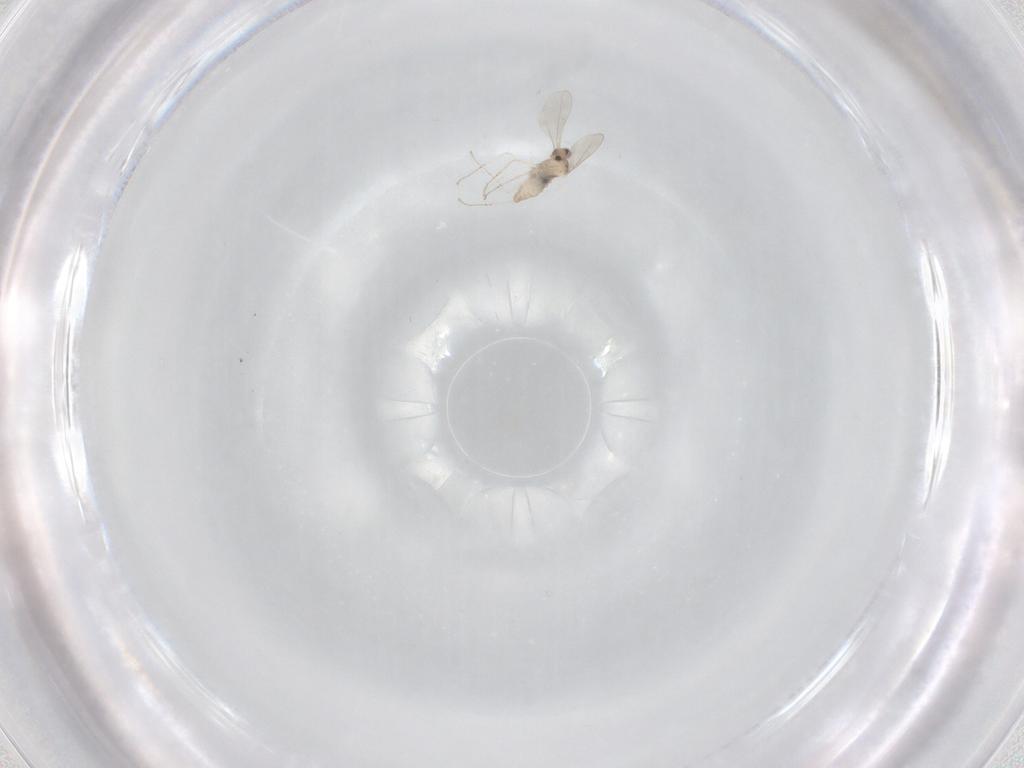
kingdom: Animalia
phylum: Arthropoda
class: Insecta
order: Diptera
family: Cecidomyiidae
